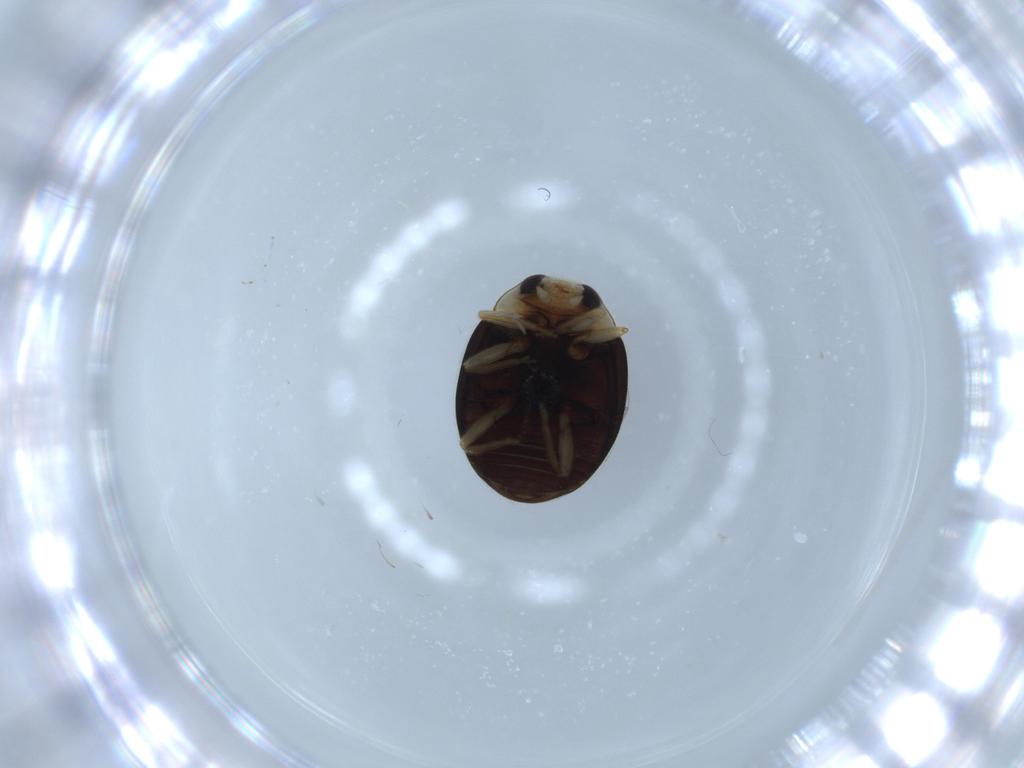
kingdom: Animalia
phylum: Arthropoda
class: Insecta
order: Coleoptera
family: Coccinellidae
